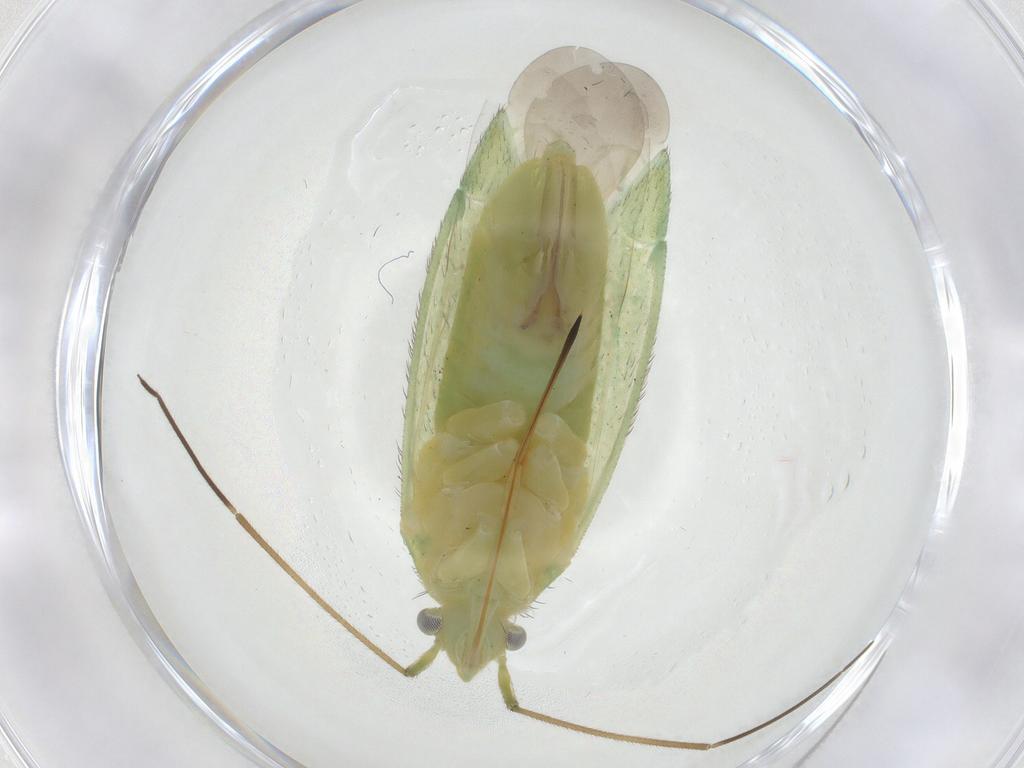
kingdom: Animalia
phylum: Arthropoda
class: Insecta
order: Hemiptera
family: Miridae
